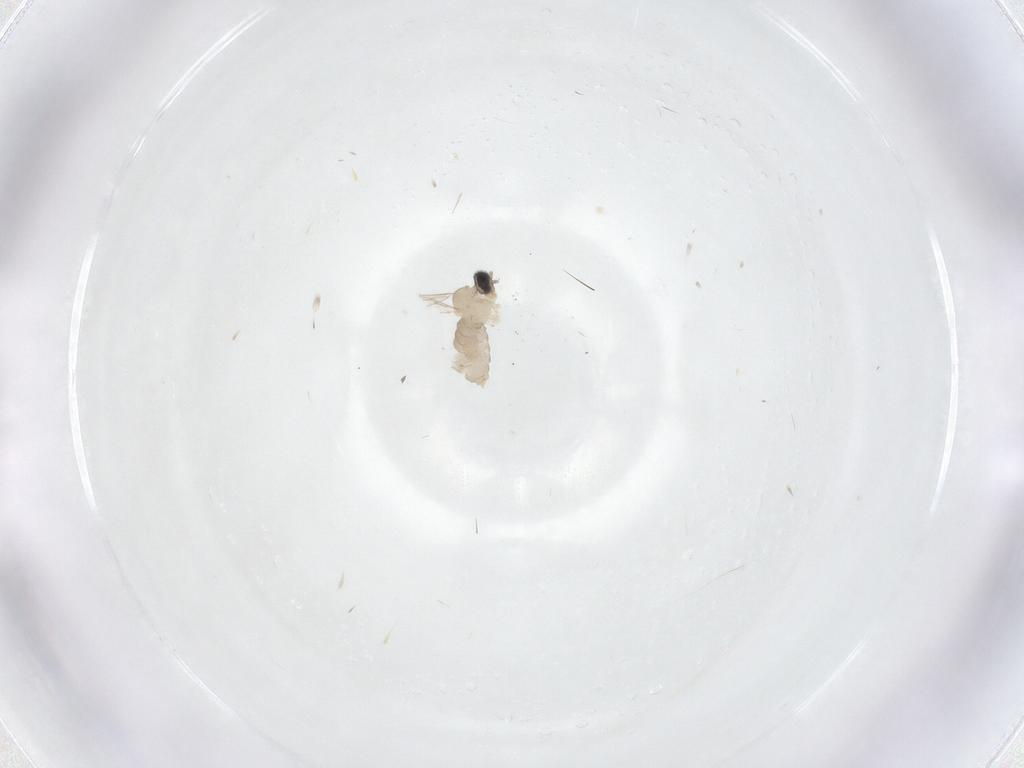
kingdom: Animalia
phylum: Arthropoda
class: Insecta
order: Diptera
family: Cecidomyiidae
